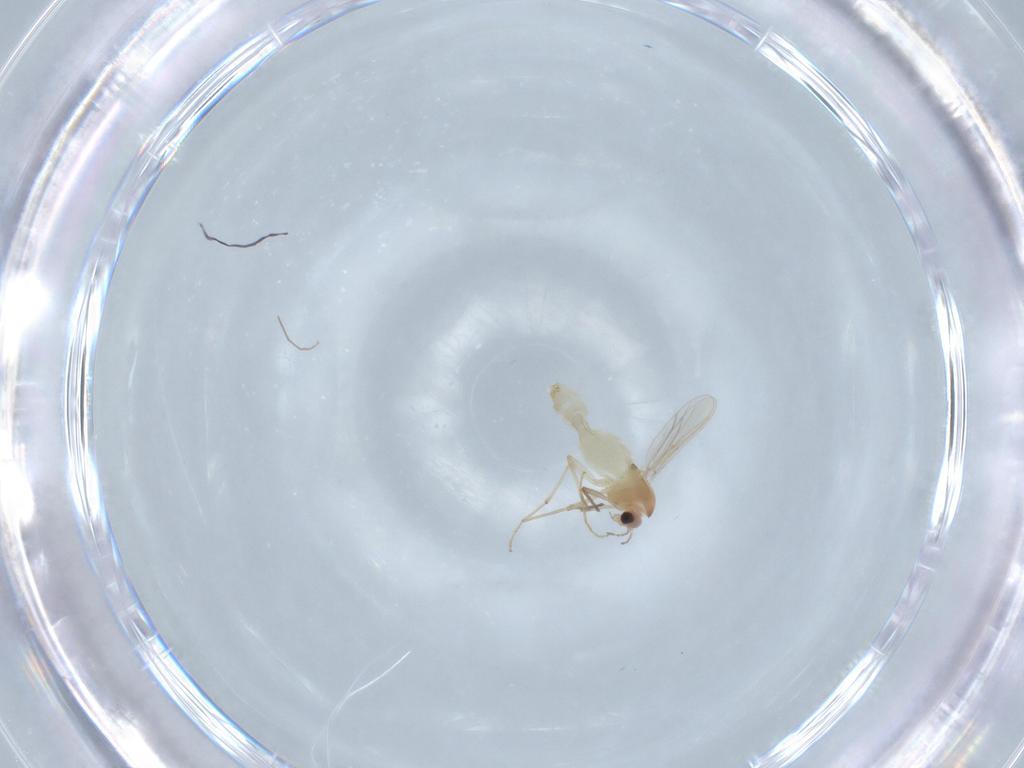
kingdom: Animalia
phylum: Arthropoda
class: Insecta
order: Diptera
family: Chironomidae
